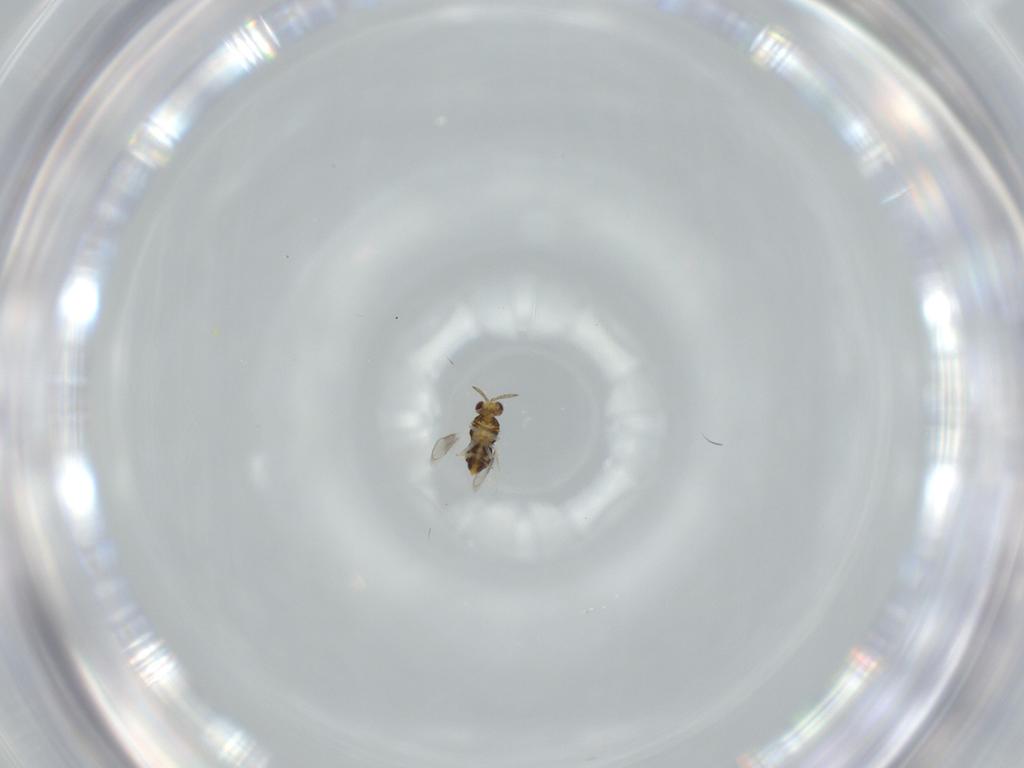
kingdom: Animalia
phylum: Arthropoda
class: Insecta
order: Hymenoptera
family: Aphelinidae
